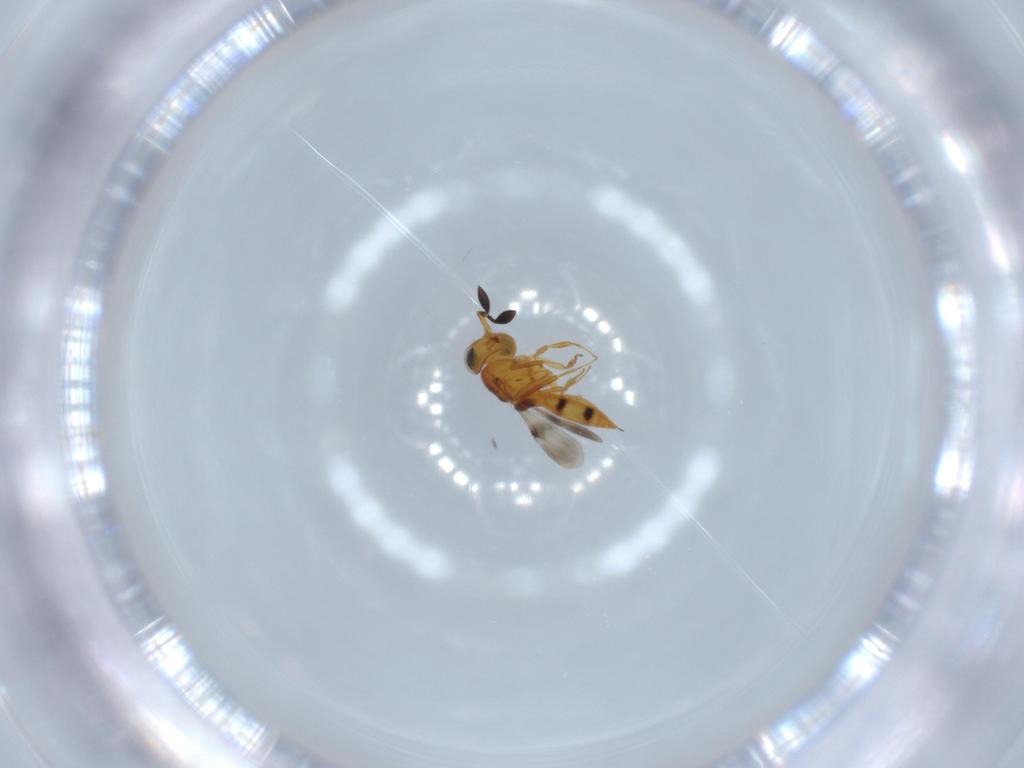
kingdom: Animalia
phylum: Arthropoda
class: Insecta
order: Hymenoptera
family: Scelionidae
